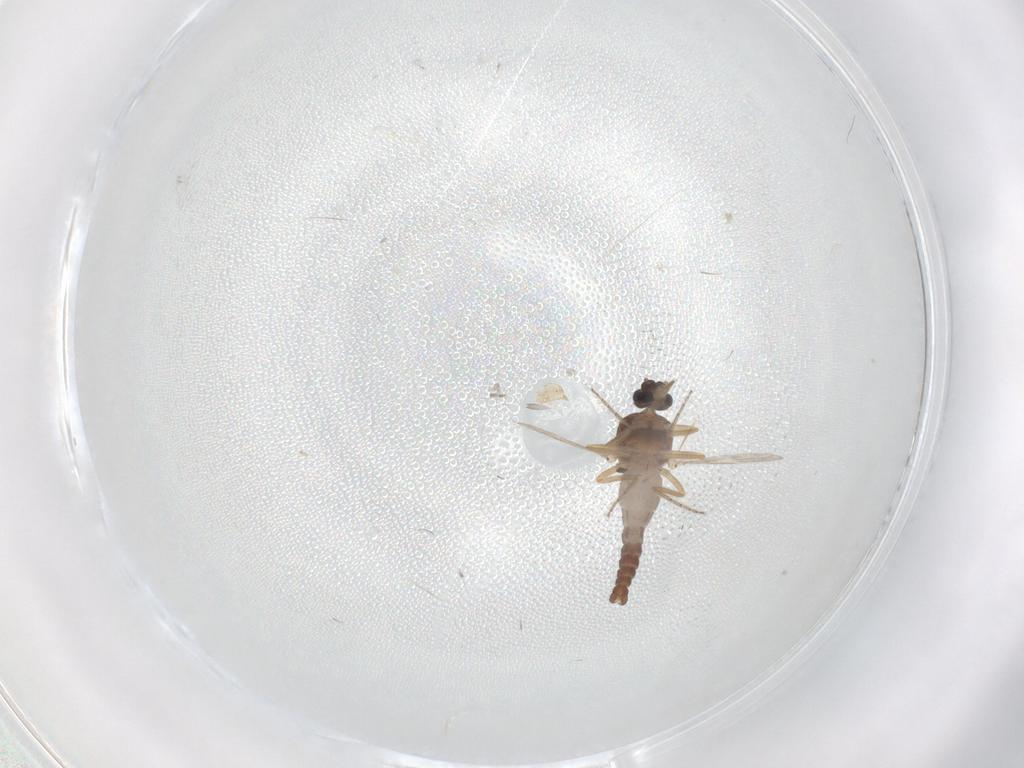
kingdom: Animalia
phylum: Arthropoda
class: Insecta
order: Diptera
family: Ceratopogonidae
